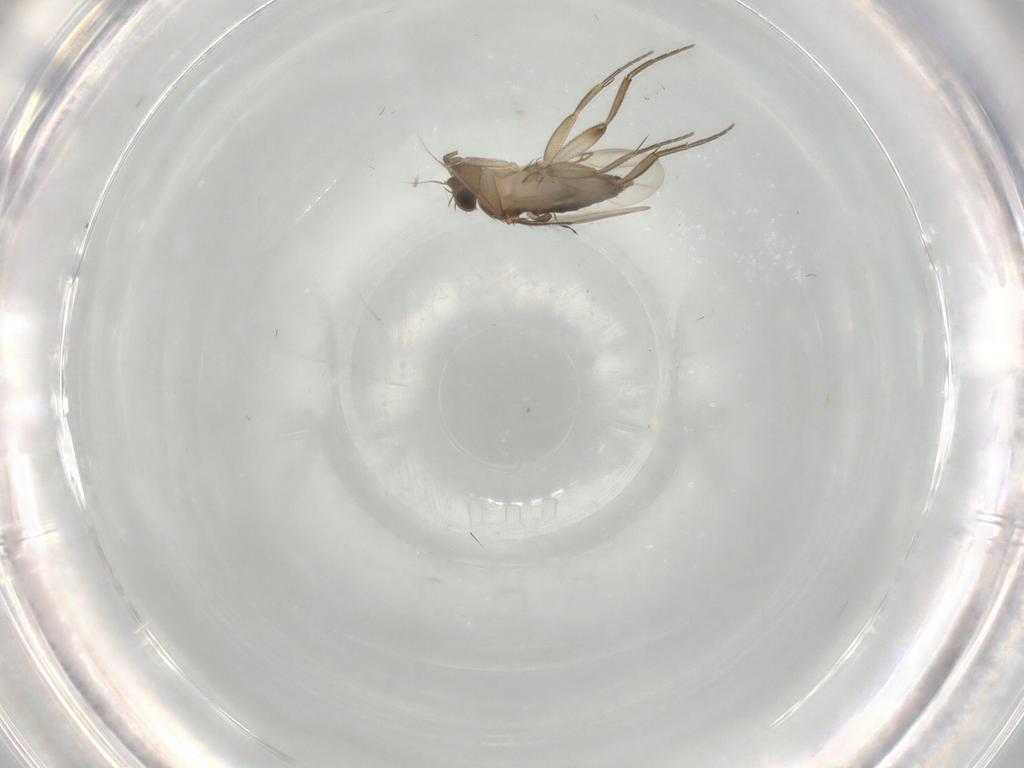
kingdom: Animalia
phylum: Arthropoda
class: Insecta
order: Diptera
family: Phoridae
